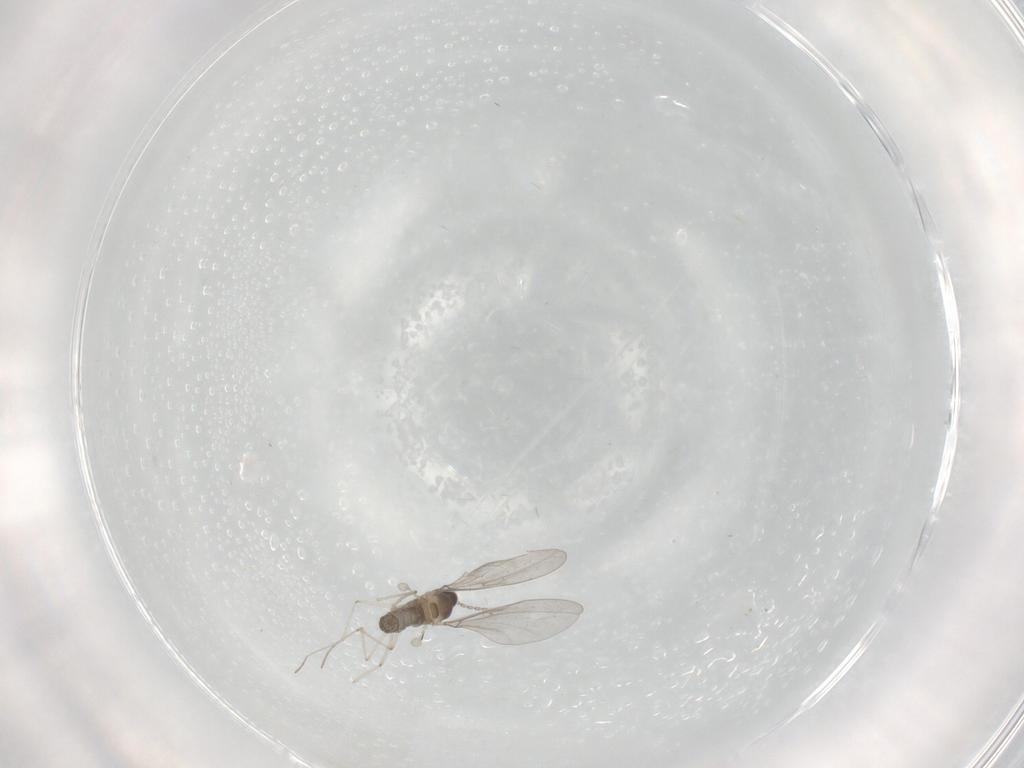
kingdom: Animalia
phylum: Arthropoda
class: Insecta
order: Diptera
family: Cecidomyiidae
